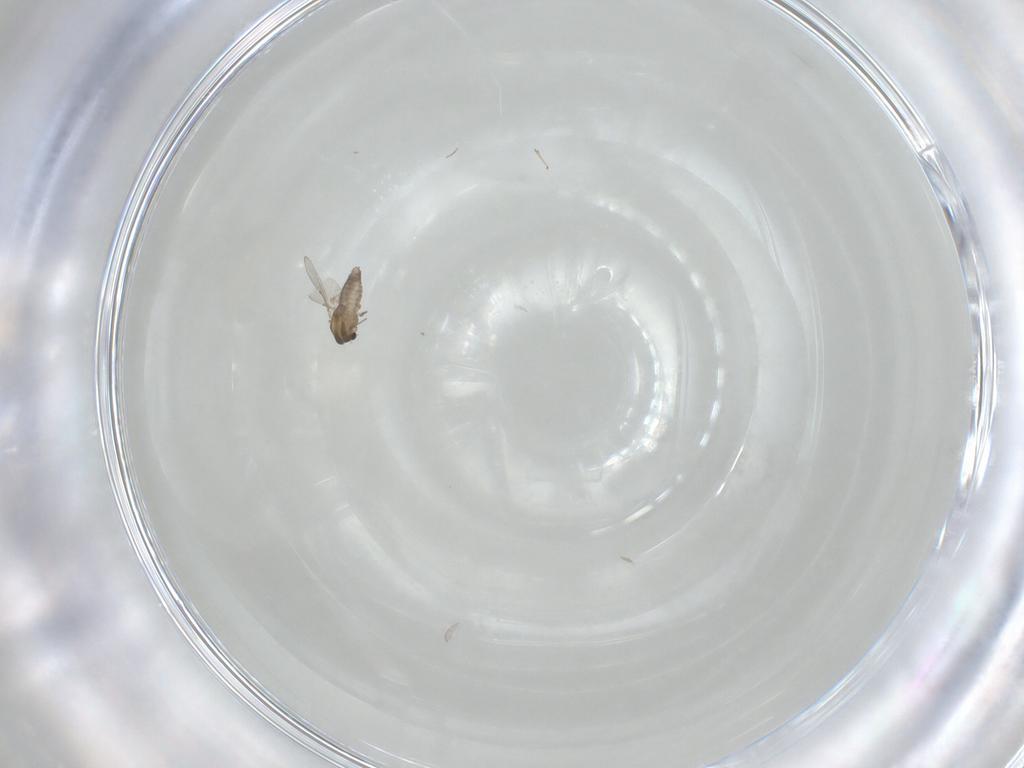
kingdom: Animalia
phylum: Arthropoda
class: Insecta
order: Diptera
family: Chironomidae
